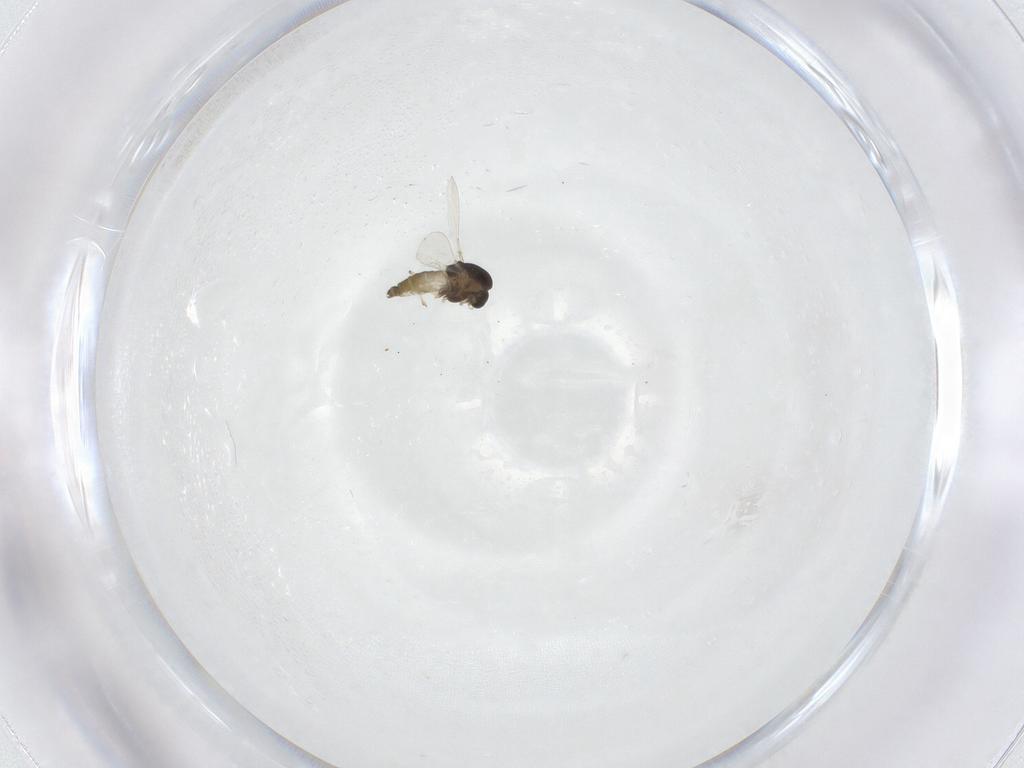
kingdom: Animalia
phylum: Arthropoda
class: Insecta
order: Diptera
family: Chironomidae
